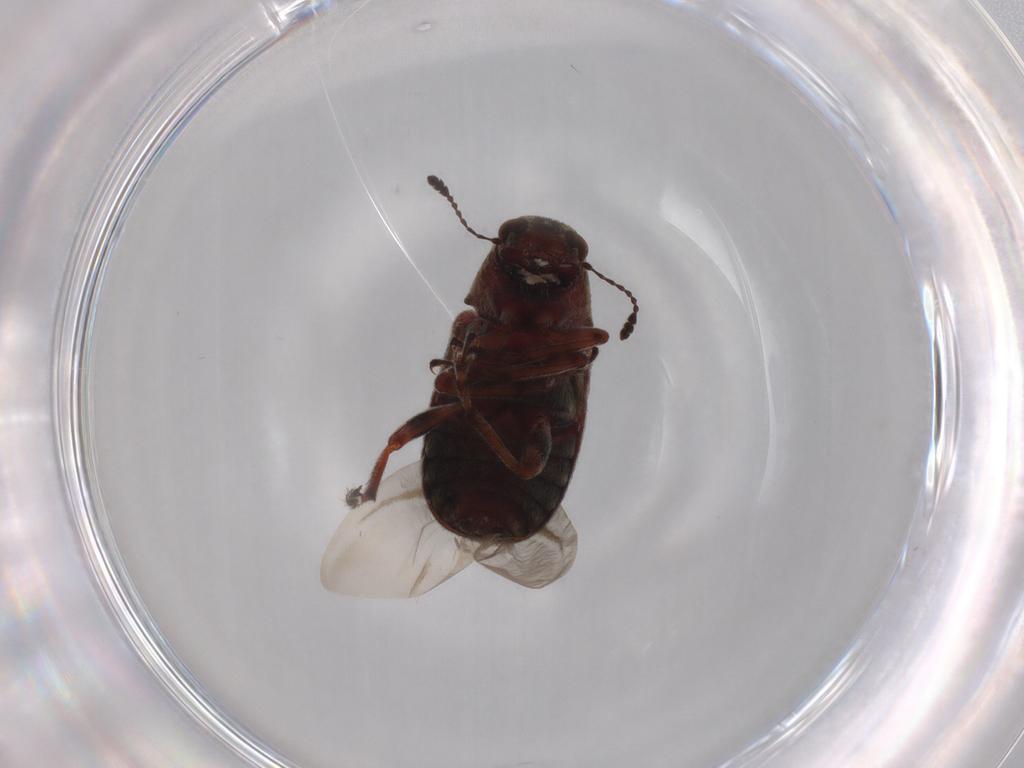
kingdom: Animalia
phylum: Arthropoda
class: Insecta
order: Coleoptera
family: Anthribidae
